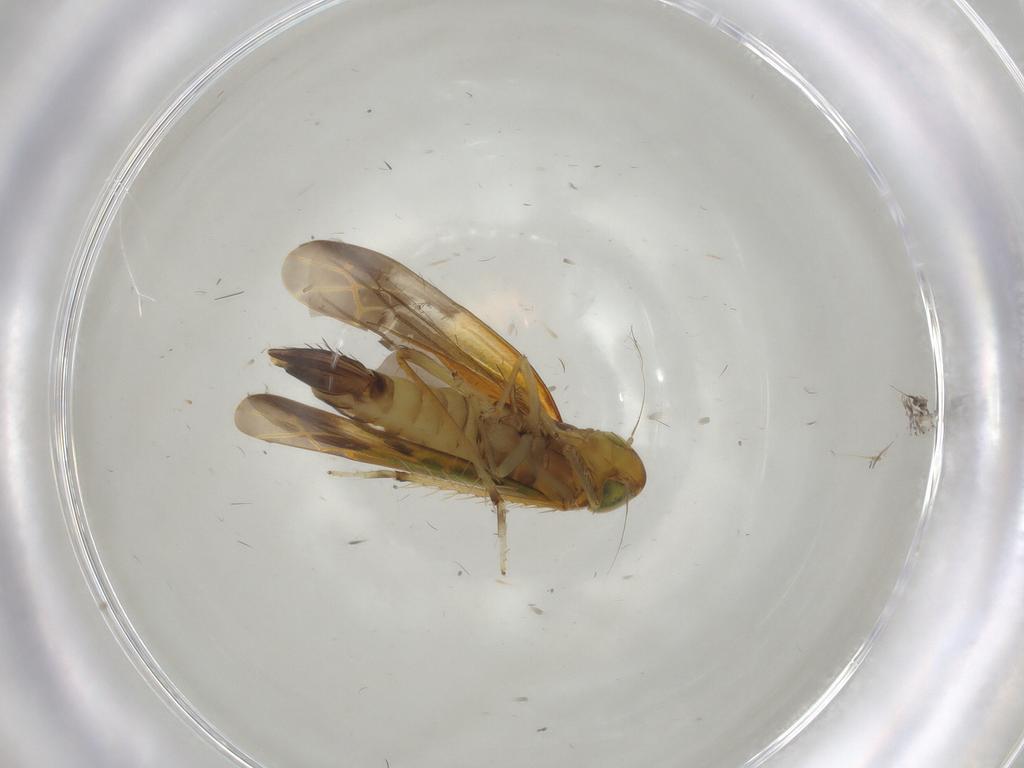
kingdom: Animalia
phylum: Arthropoda
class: Insecta
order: Hemiptera
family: Cicadellidae
